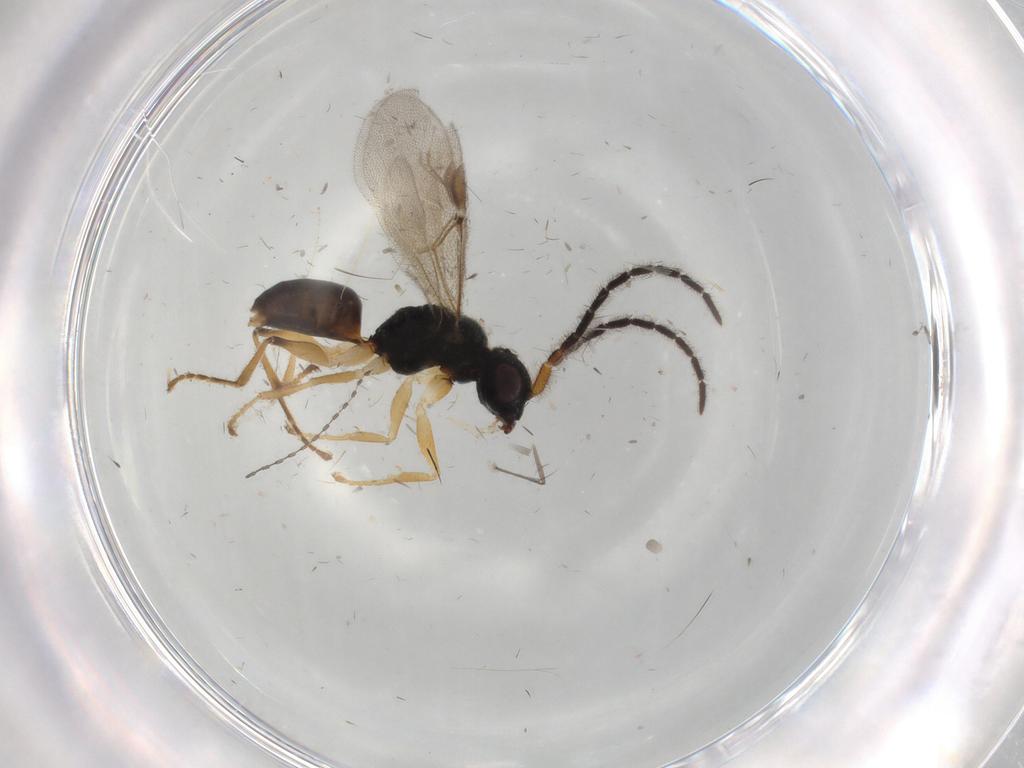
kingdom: Animalia
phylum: Arthropoda
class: Insecta
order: Hymenoptera
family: Dryinidae
